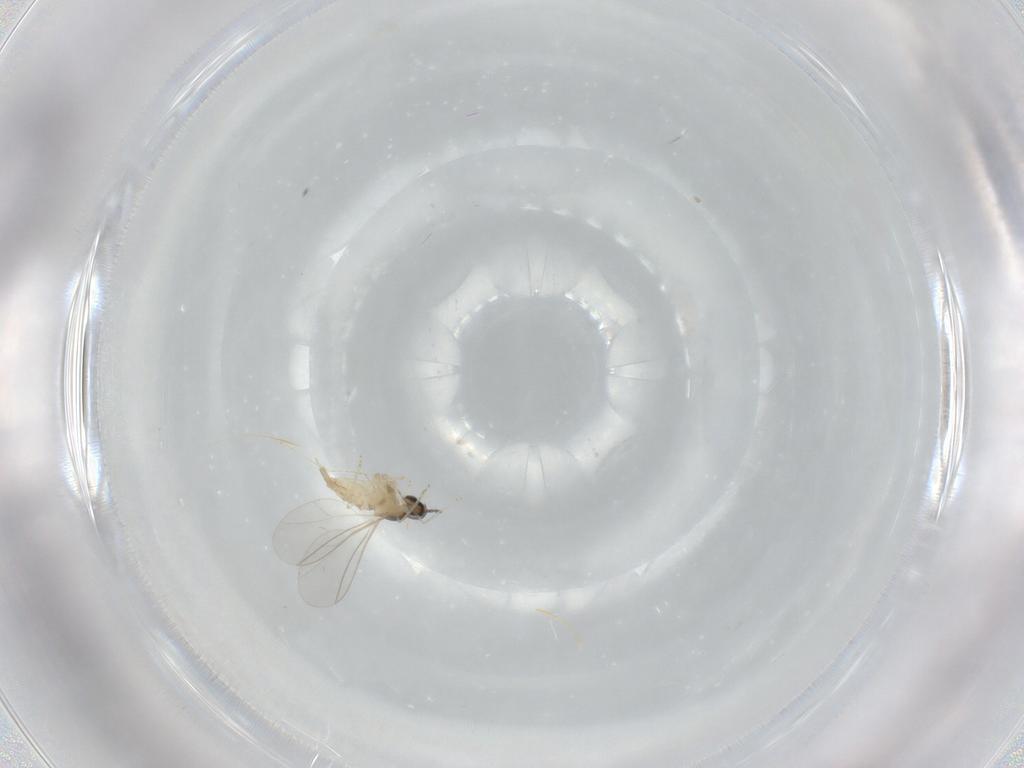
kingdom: Animalia
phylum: Arthropoda
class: Insecta
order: Diptera
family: Cecidomyiidae
